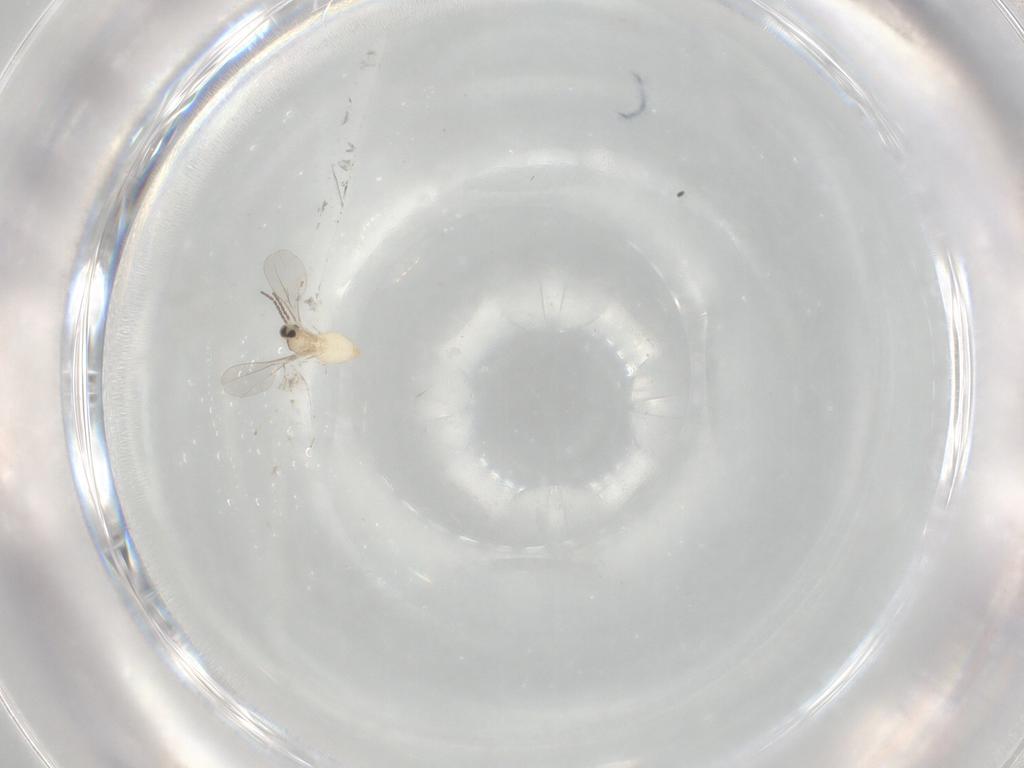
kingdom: Animalia
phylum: Arthropoda
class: Insecta
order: Diptera
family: Cecidomyiidae
